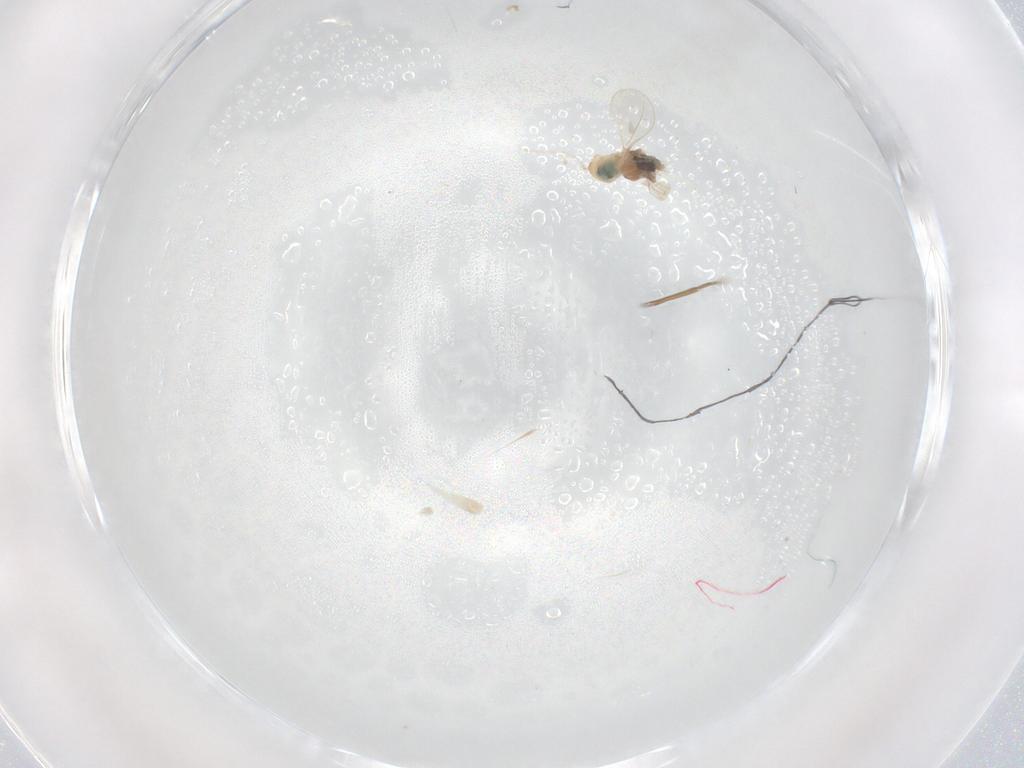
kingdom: Animalia
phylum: Arthropoda
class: Insecta
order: Diptera
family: Cecidomyiidae
